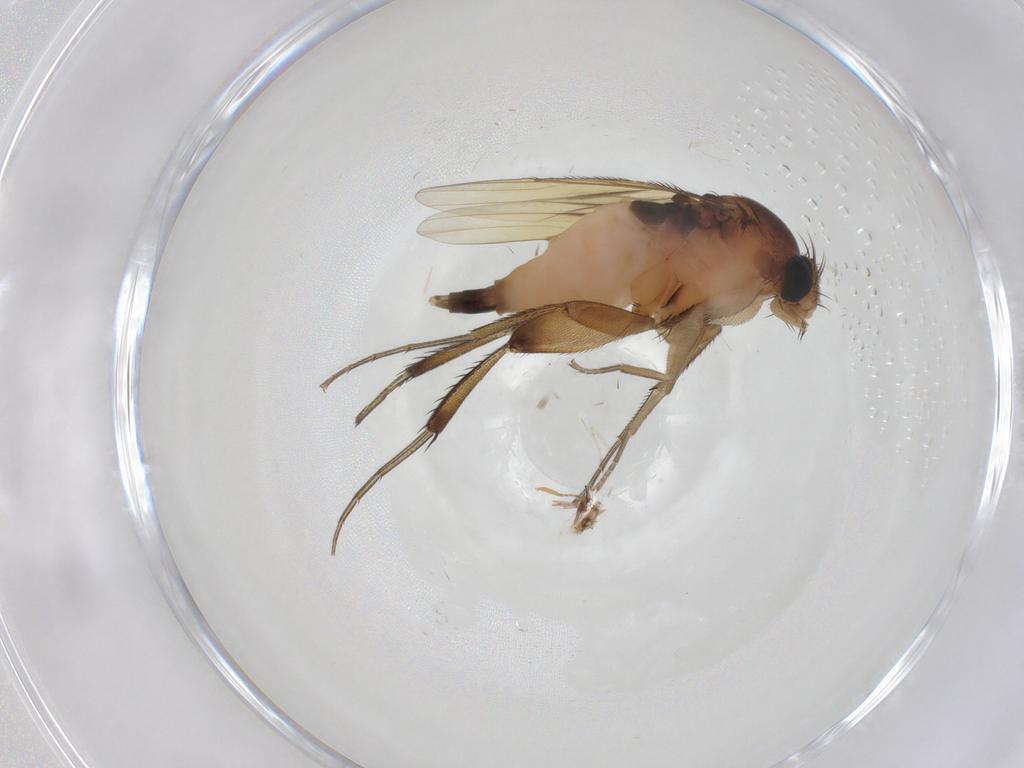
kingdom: Animalia
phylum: Arthropoda
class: Insecta
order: Diptera
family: Phoridae
